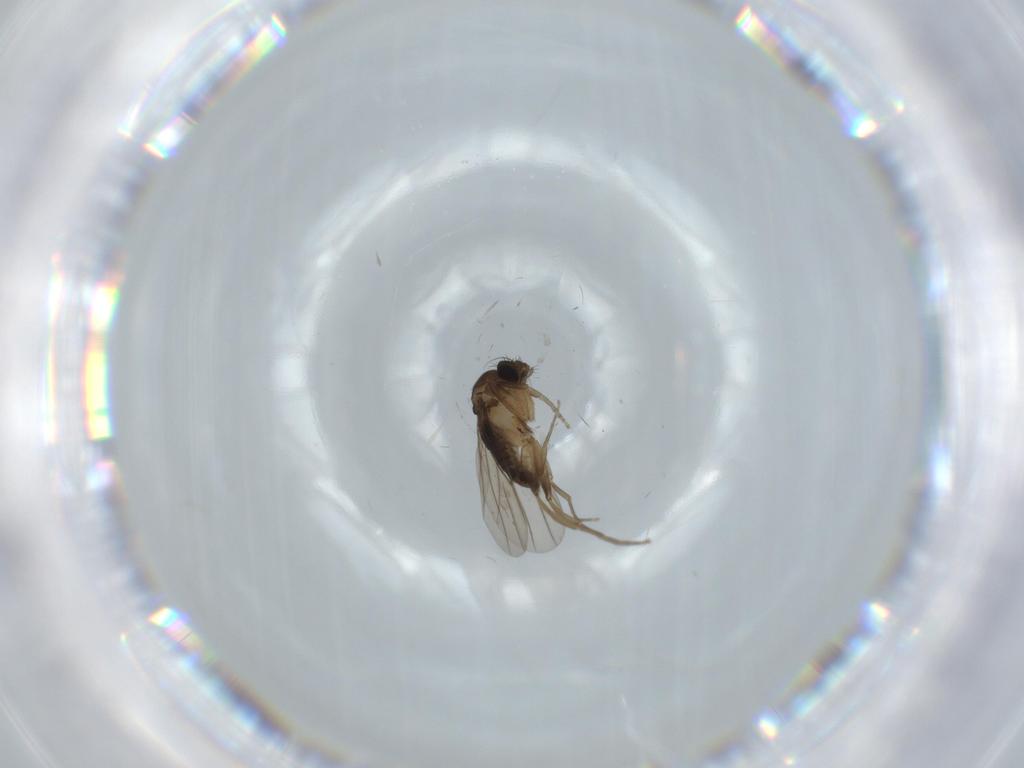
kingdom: Animalia
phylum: Arthropoda
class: Insecta
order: Diptera
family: Phoridae
